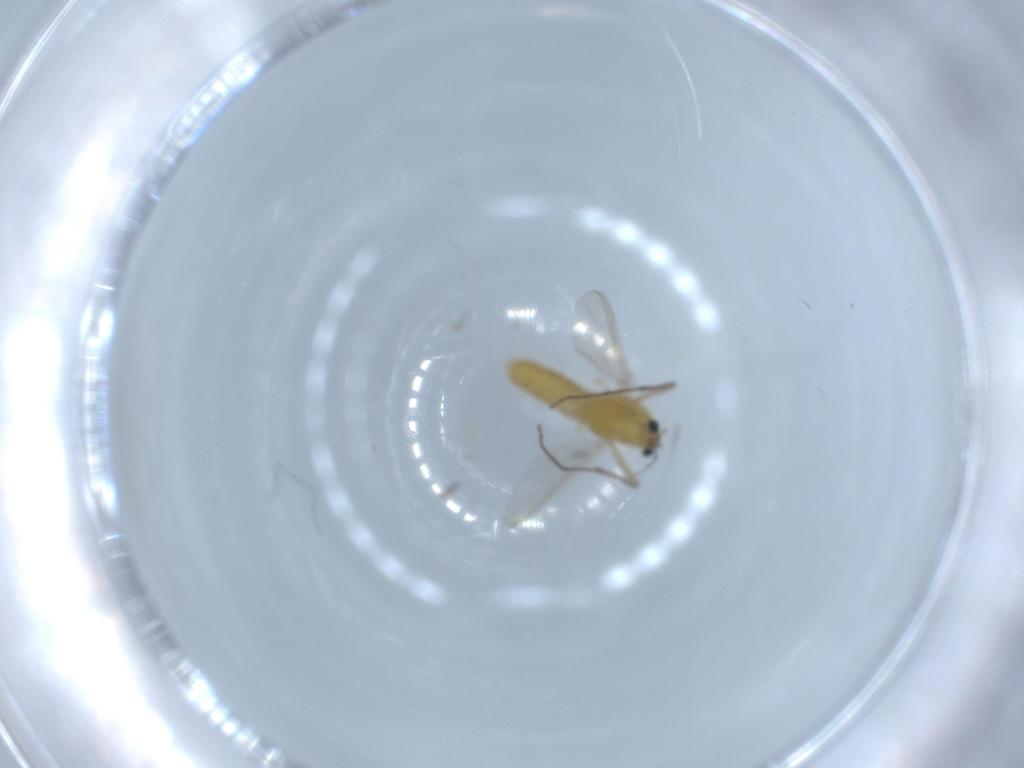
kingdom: Animalia
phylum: Arthropoda
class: Insecta
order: Diptera
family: Chironomidae
